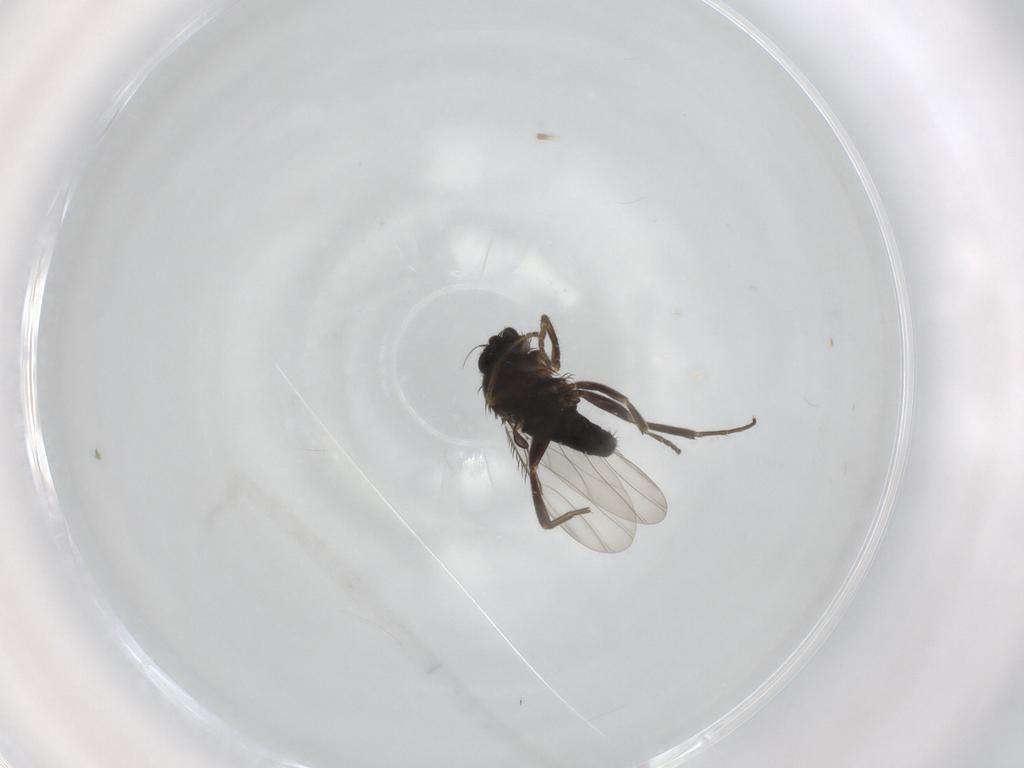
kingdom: Animalia
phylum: Arthropoda
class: Insecta
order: Diptera
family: Phoridae
